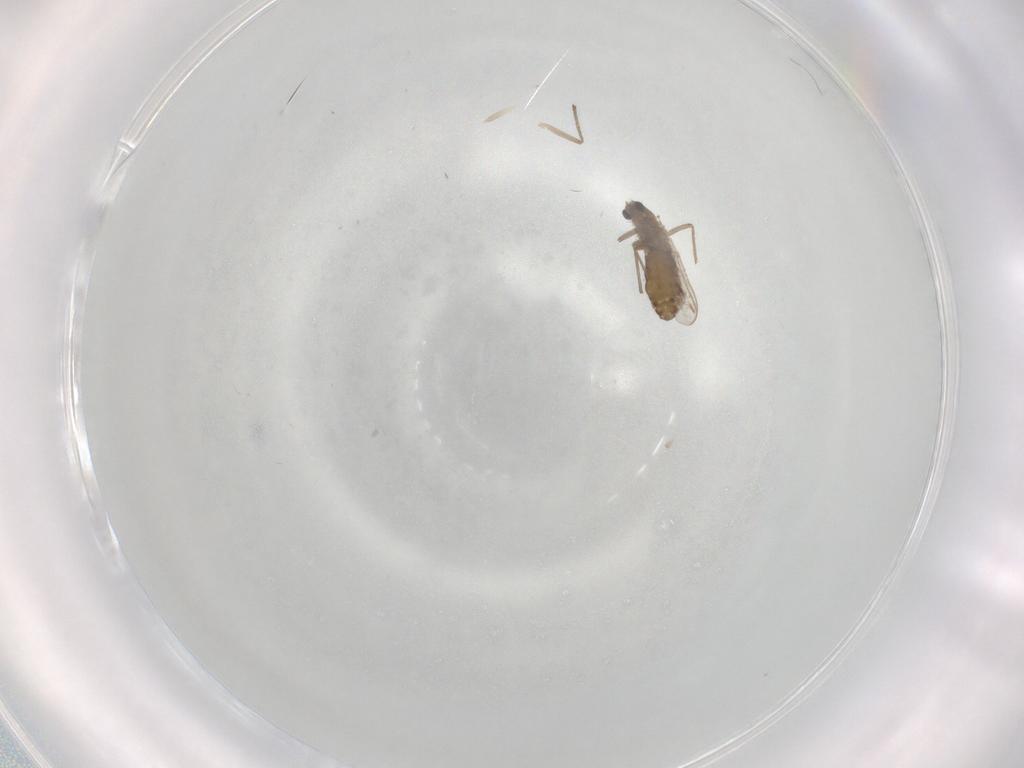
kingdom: Animalia
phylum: Arthropoda
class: Insecta
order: Diptera
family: Chironomidae
